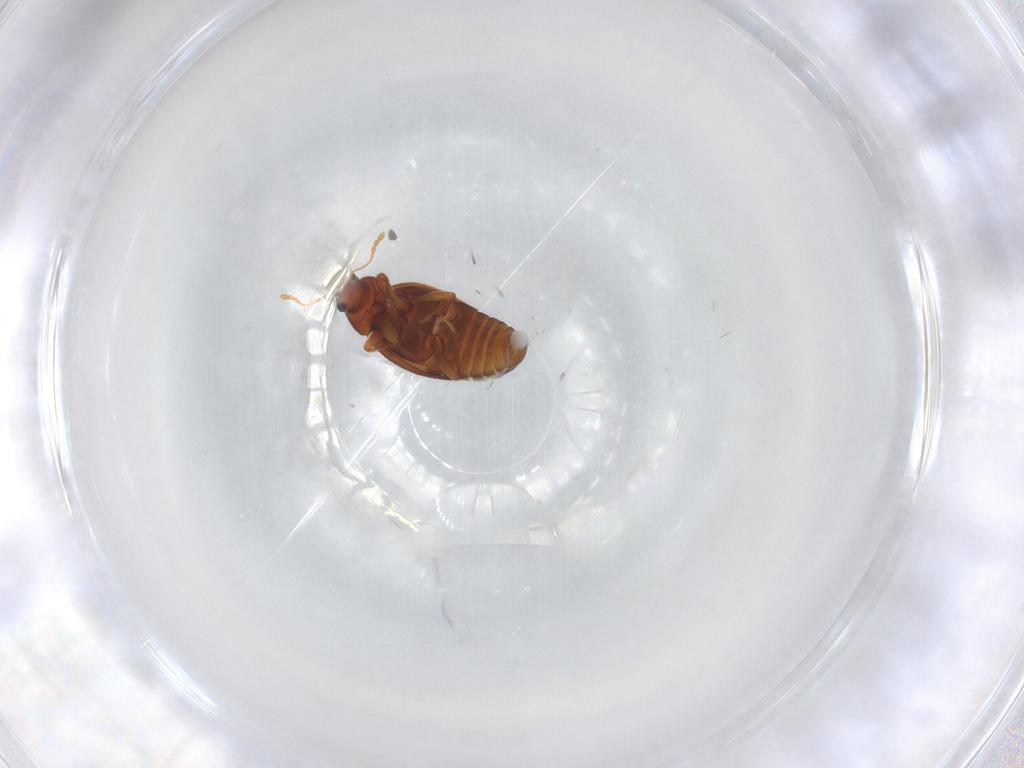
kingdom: Animalia
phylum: Arthropoda
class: Insecta
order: Coleoptera
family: Latridiidae
